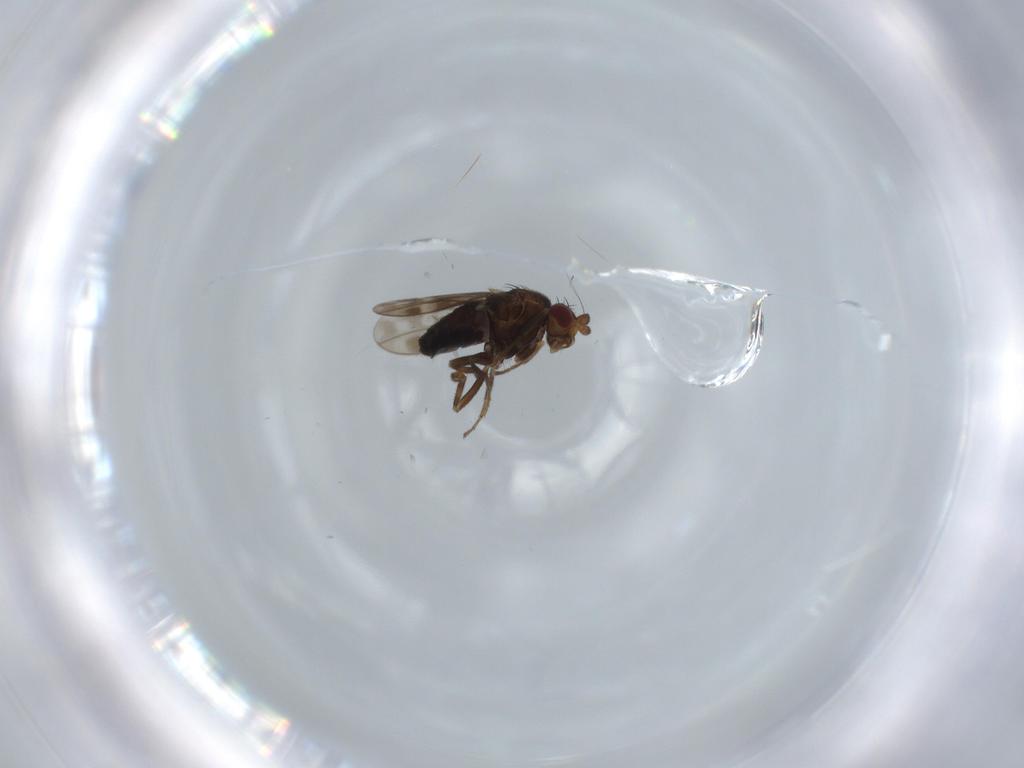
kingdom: Animalia
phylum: Arthropoda
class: Insecta
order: Diptera
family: Sphaeroceridae
